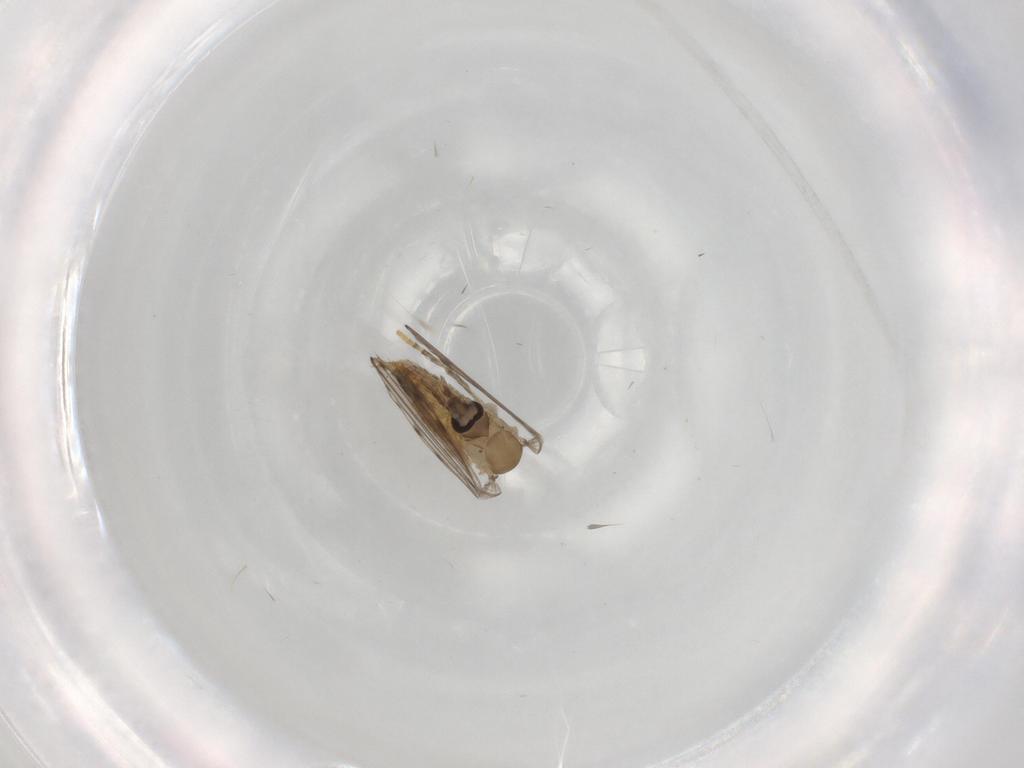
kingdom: Animalia
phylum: Arthropoda
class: Insecta
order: Diptera
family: Psychodidae
